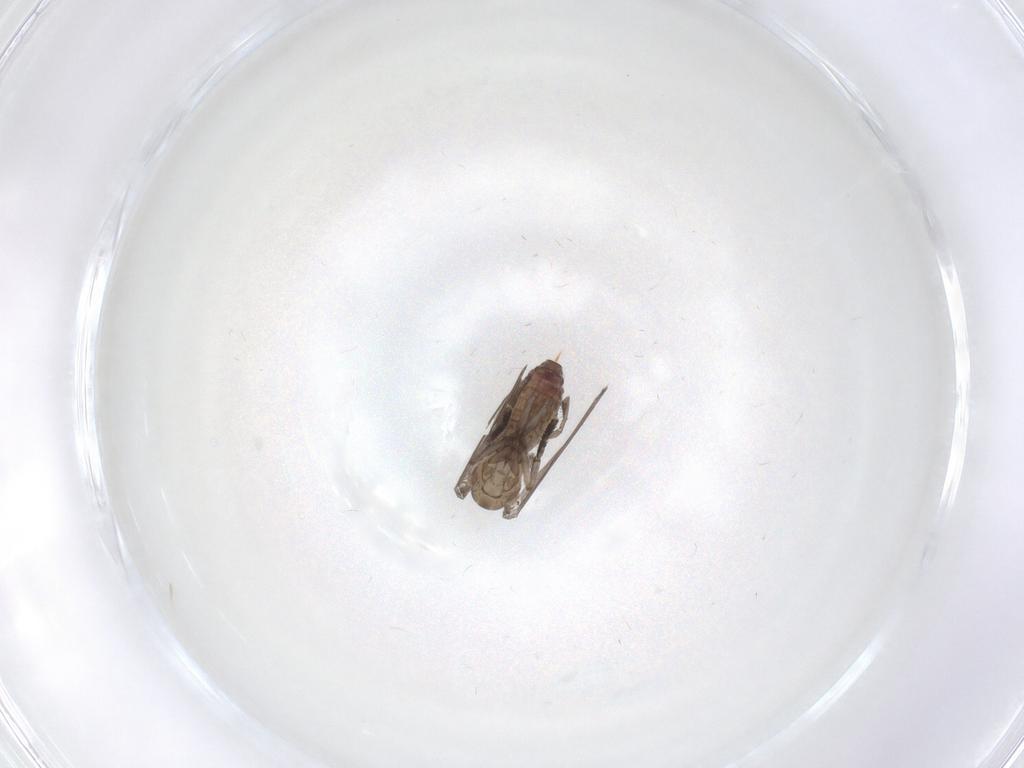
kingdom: Animalia
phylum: Arthropoda
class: Insecta
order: Diptera
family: Psychodidae
